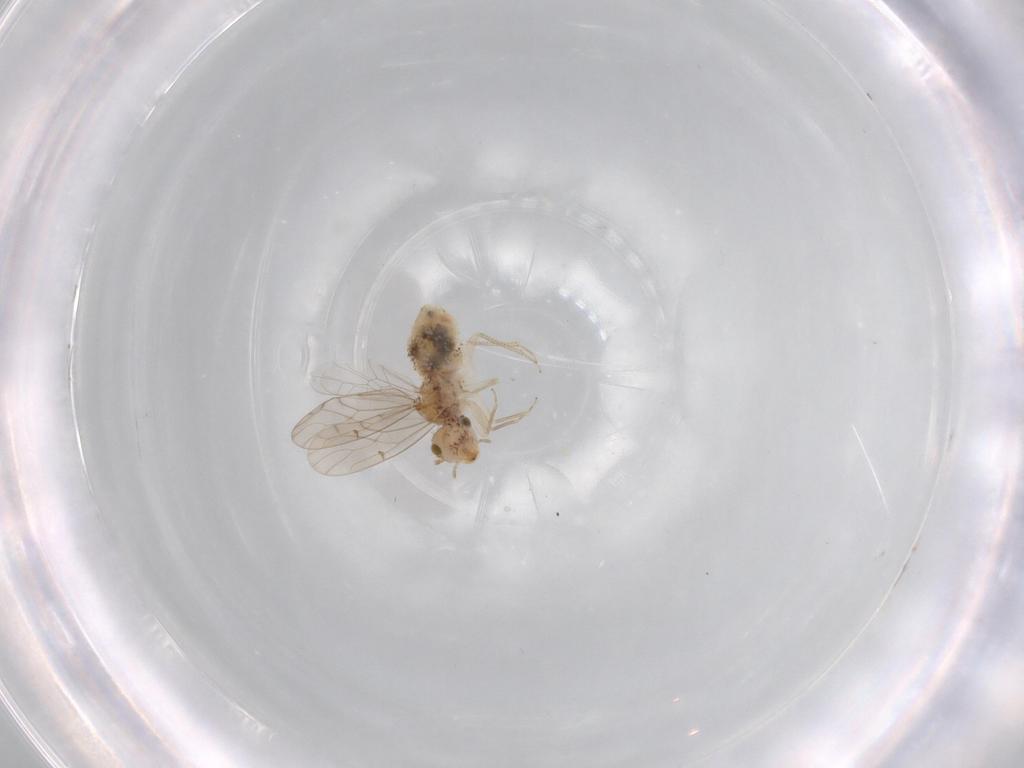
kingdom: Animalia
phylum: Arthropoda
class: Insecta
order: Psocodea
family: Ectopsocidae
